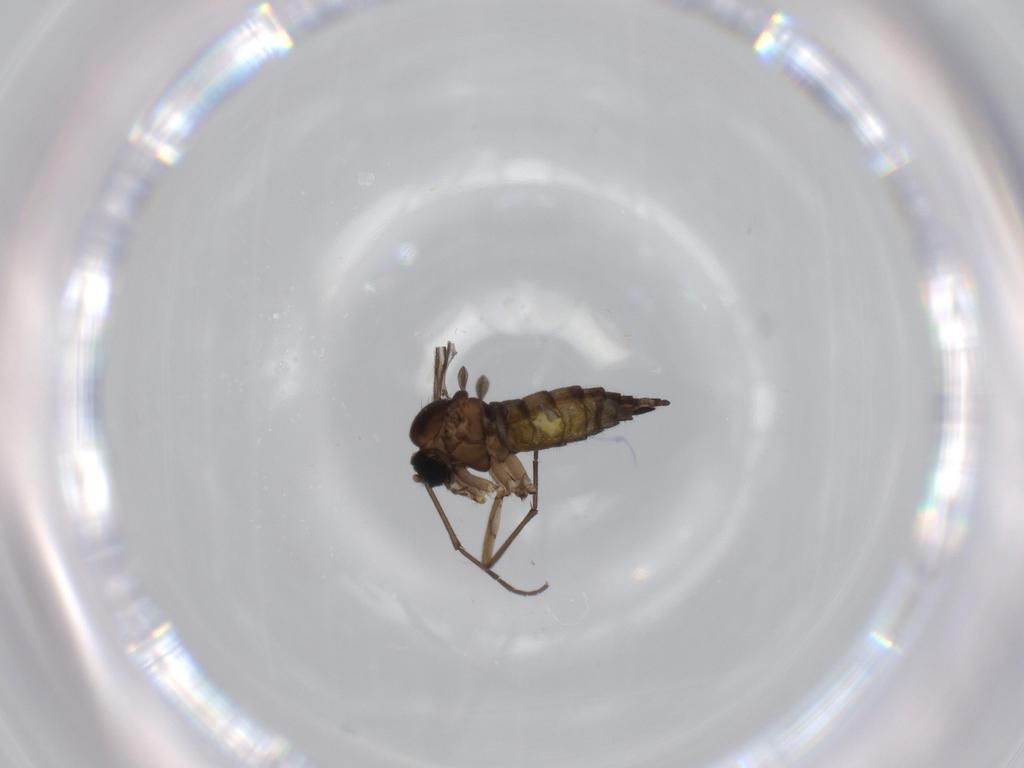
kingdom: Animalia
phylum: Arthropoda
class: Insecta
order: Diptera
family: Sciaridae
